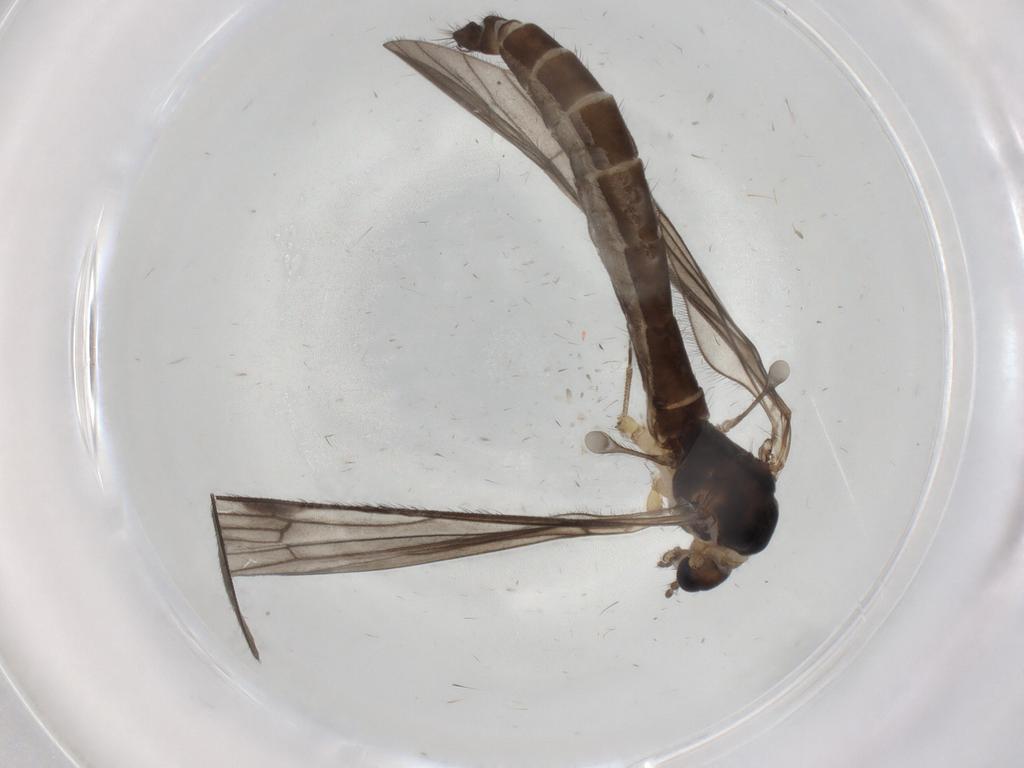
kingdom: Animalia
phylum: Arthropoda
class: Insecta
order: Diptera
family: Limoniidae
